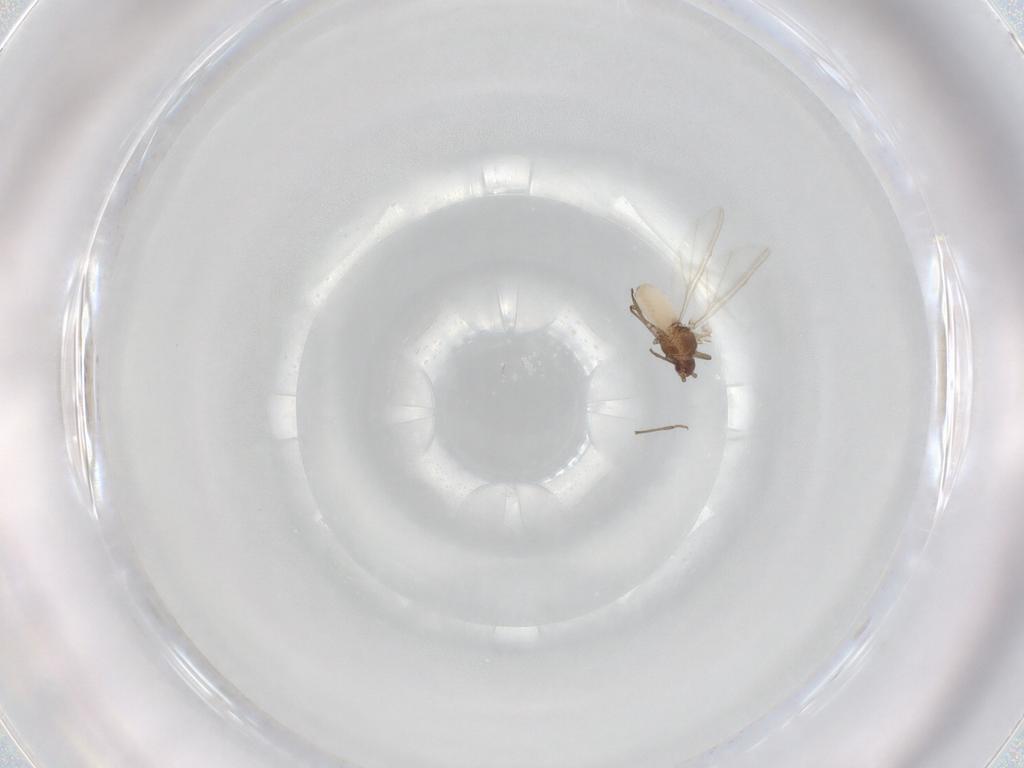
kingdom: Animalia
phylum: Arthropoda
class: Insecta
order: Hemiptera
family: Aphididae
